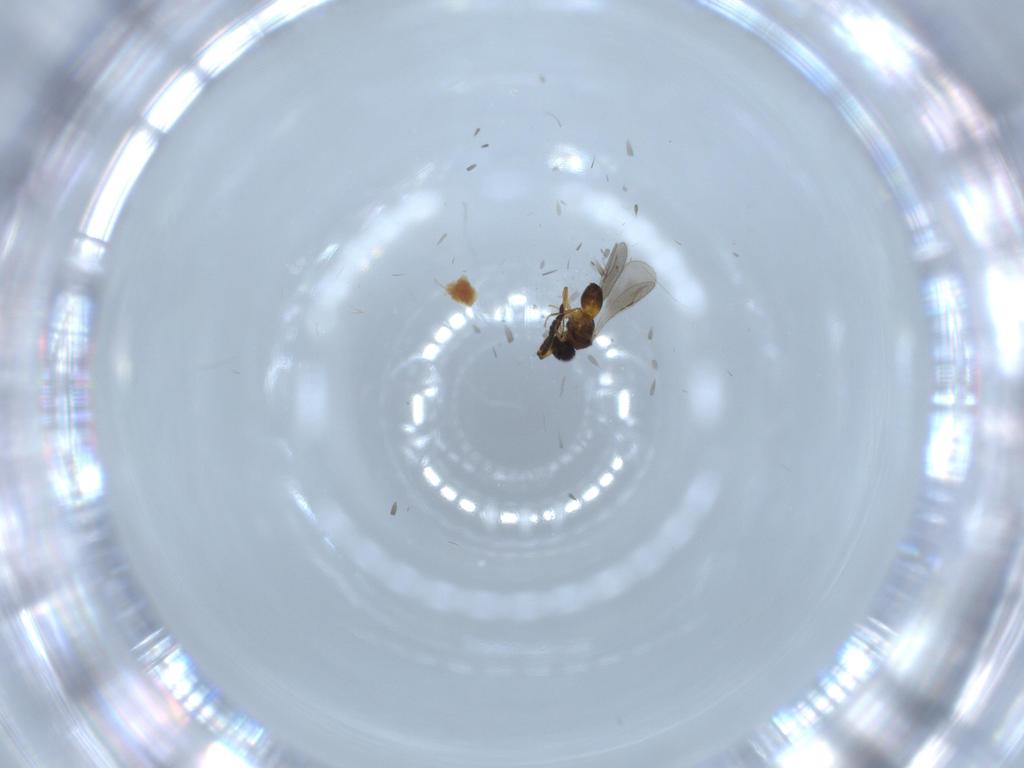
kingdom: Animalia
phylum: Arthropoda
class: Insecta
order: Hymenoptera
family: Ceraphronidae
